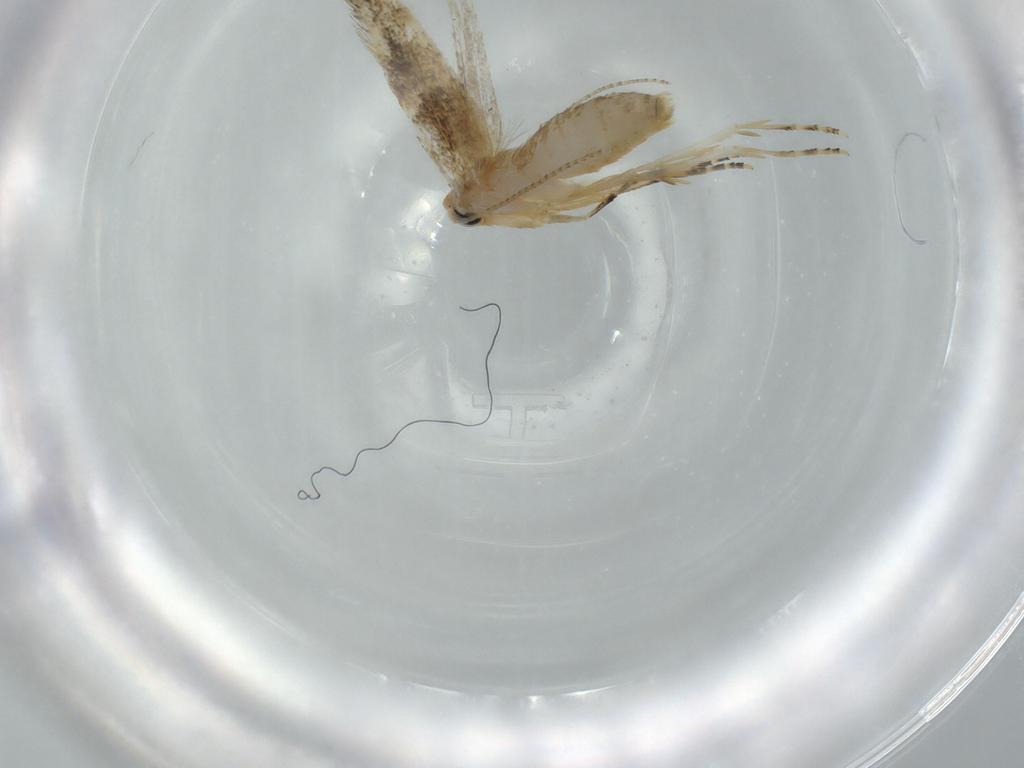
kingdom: Animalia
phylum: Arthropoda
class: Insecta
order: Lepidoptera
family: Bucculatricidae
